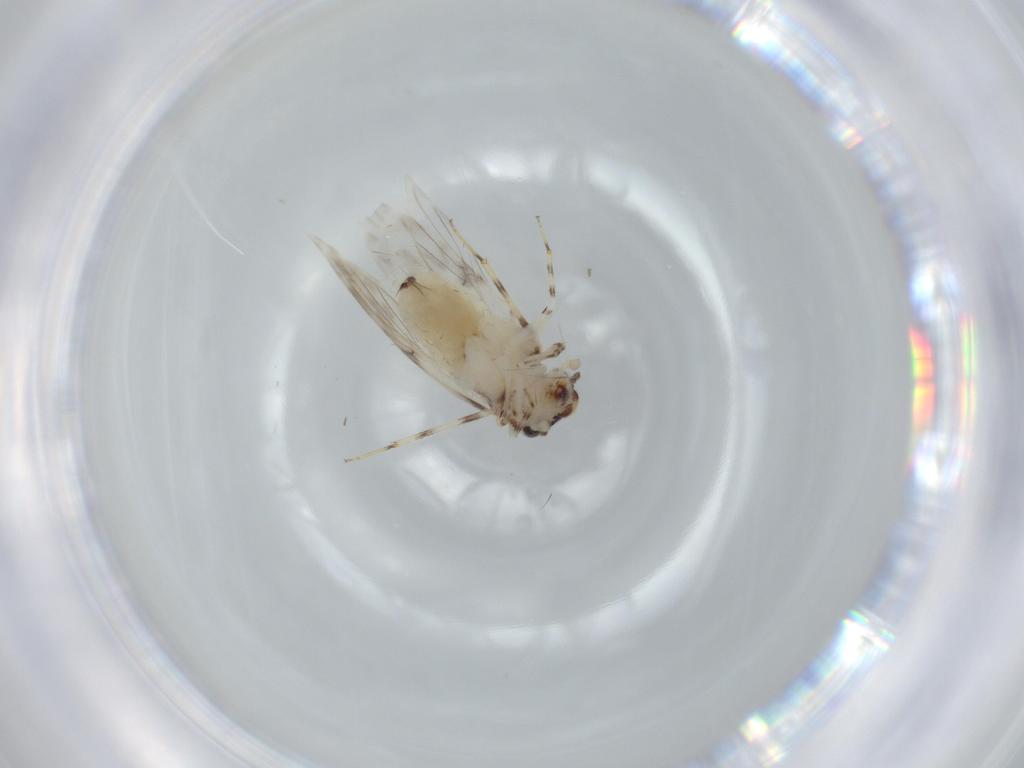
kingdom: Animalia
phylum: Arthropoda
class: Insecta
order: Psocodea
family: Lepidopsocidae
